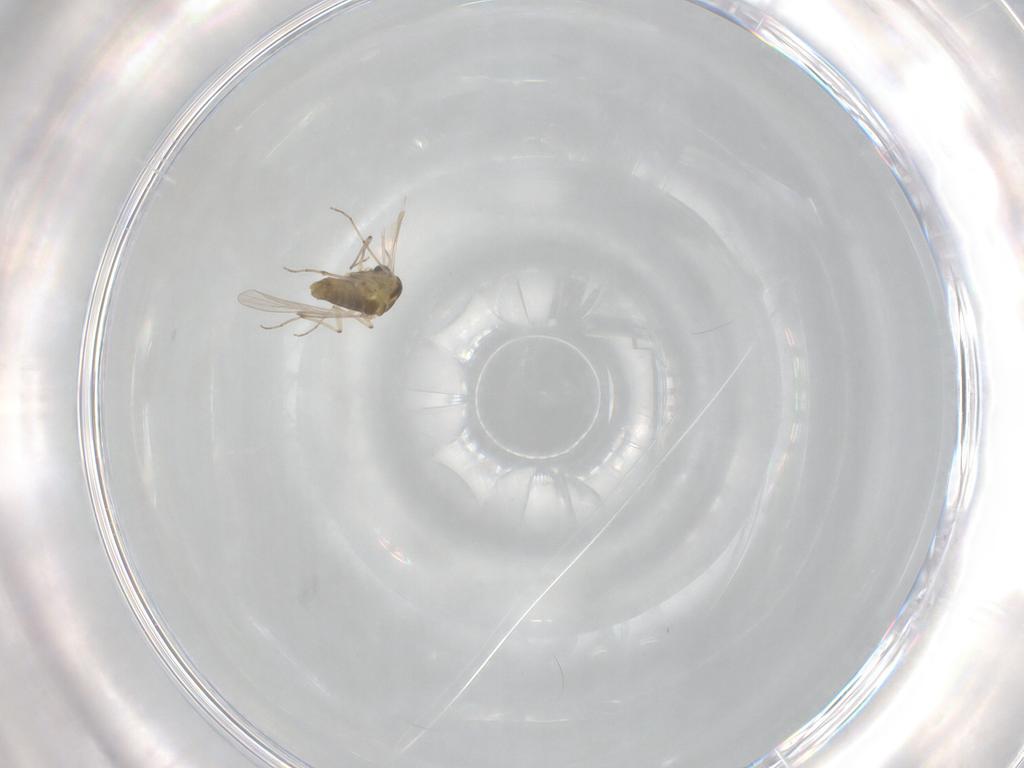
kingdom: Animalia
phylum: Arthropoda
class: Insecta
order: Diptera
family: Chironomidae
